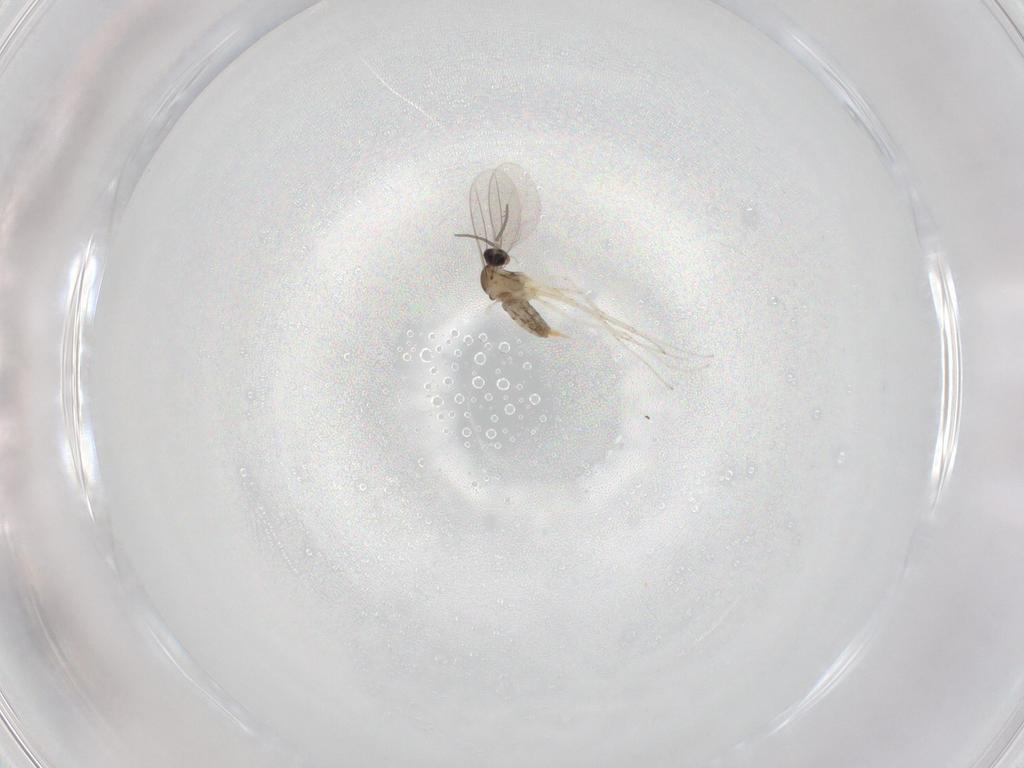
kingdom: Animalia
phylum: Arthropoda
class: Insecta
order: Diptera
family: Cecidomyiidae
